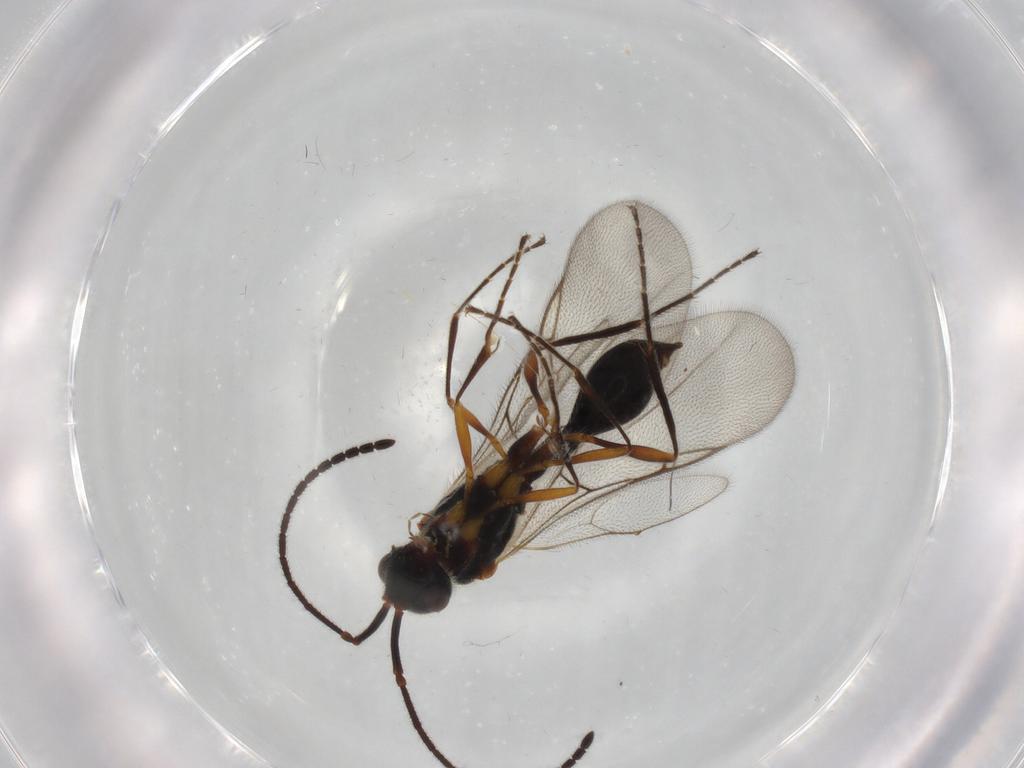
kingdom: Animalia
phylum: Arthropoda
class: Insecta
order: Hymenoptera
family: Diapriidae
